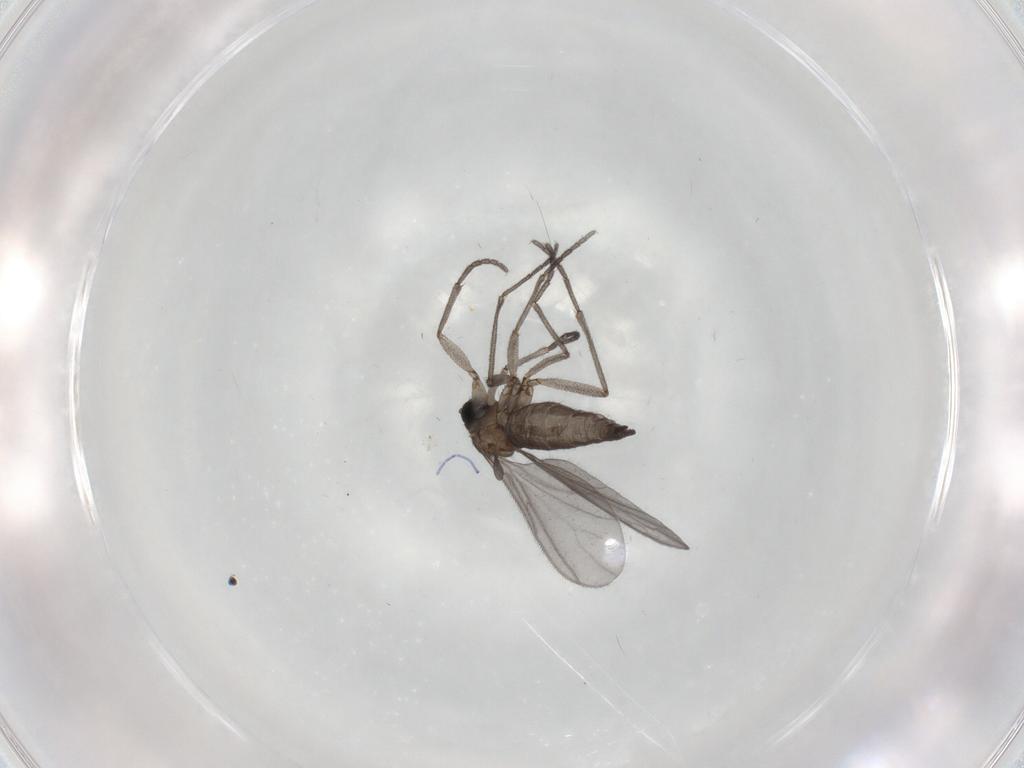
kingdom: Animalia
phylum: Arthropoda
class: Insecta
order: Diptera
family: Sciaridae
